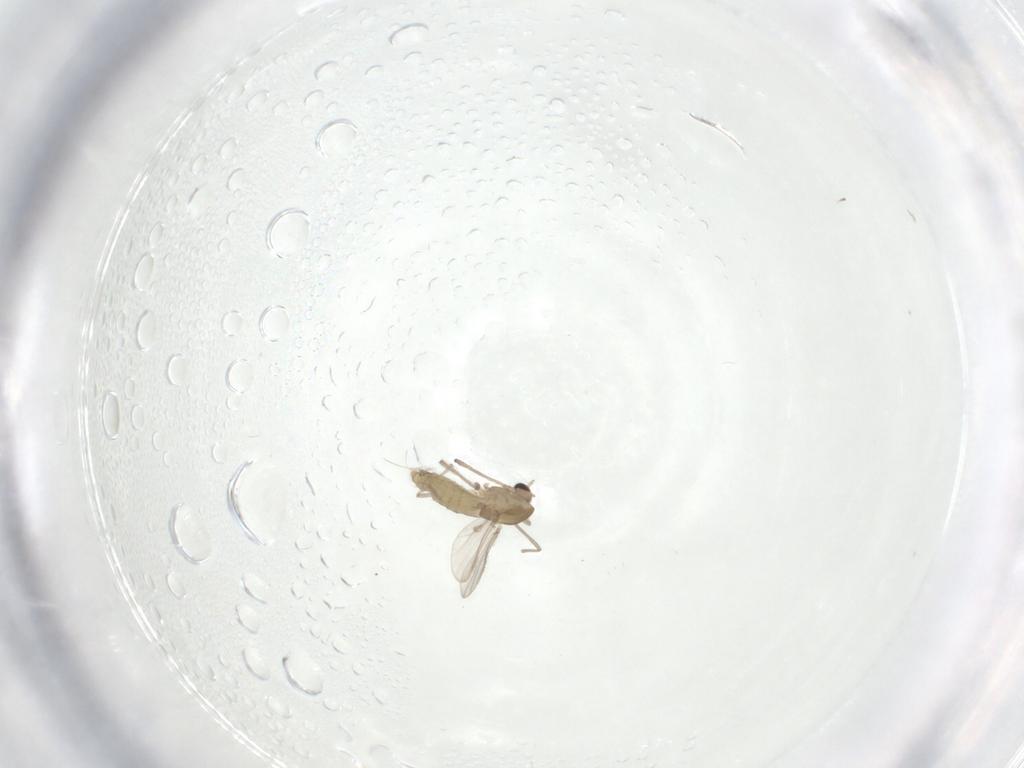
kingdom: Animalia
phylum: Arthropoda
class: Insecta
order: Diptera
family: Chironomidae
